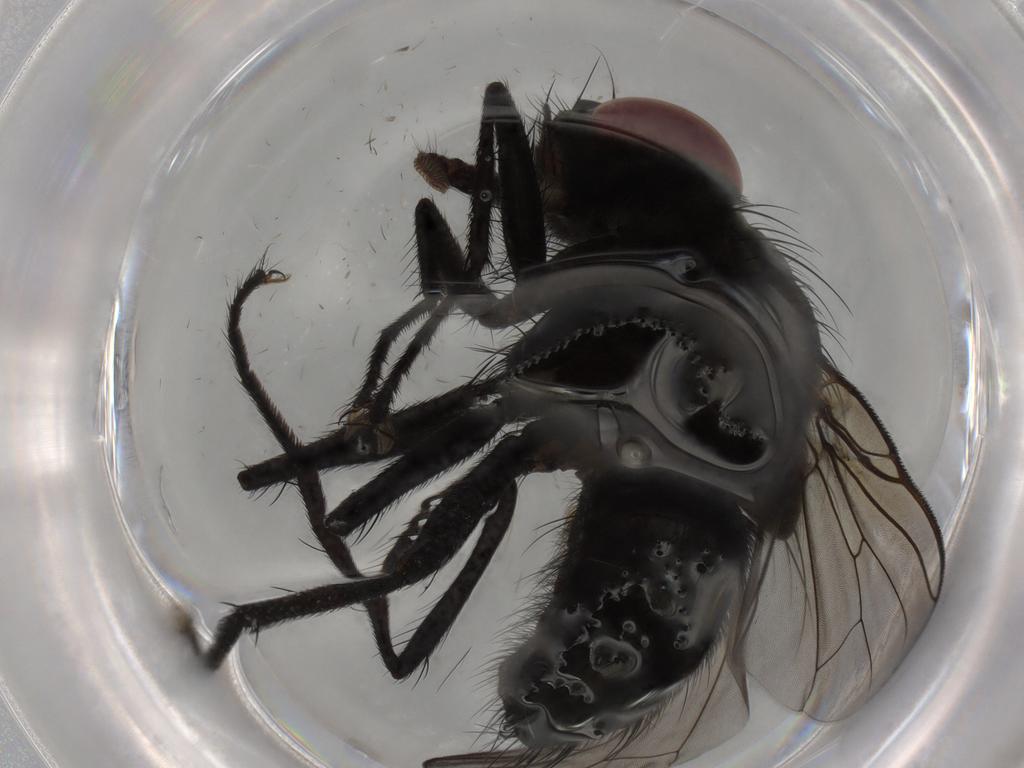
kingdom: Animalia
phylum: Arthropoda
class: Insecta
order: Diptera
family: Muscidae
